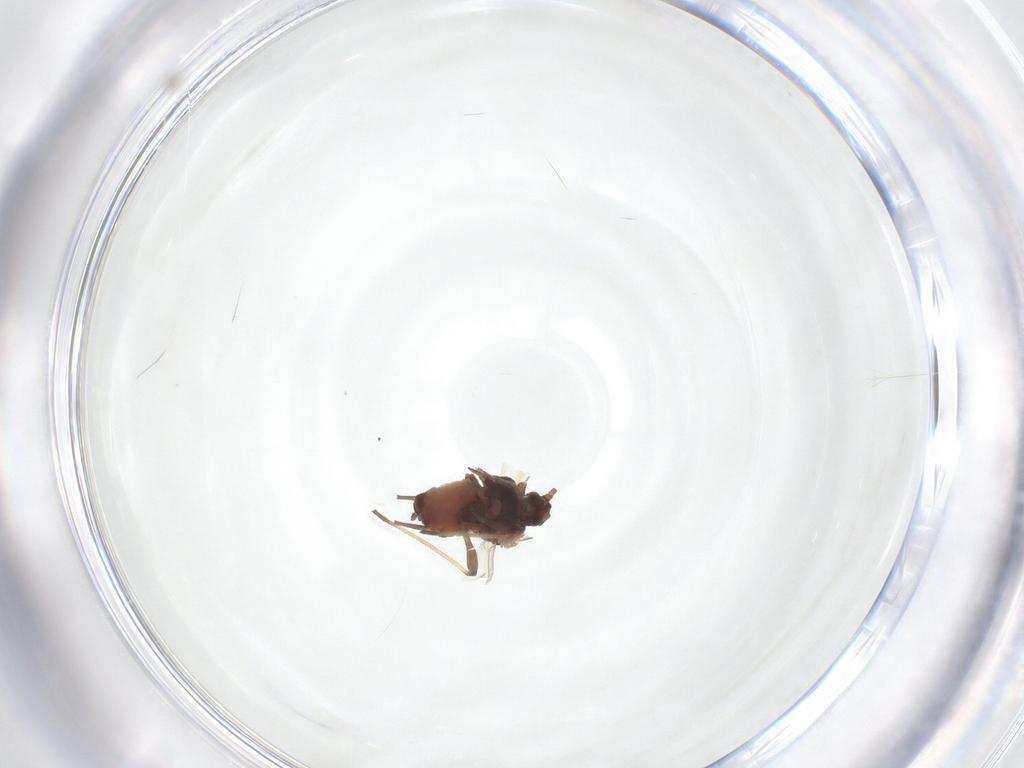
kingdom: Animalia
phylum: Arthropoda
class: Insecta
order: Hemiptera
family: Aphididae
